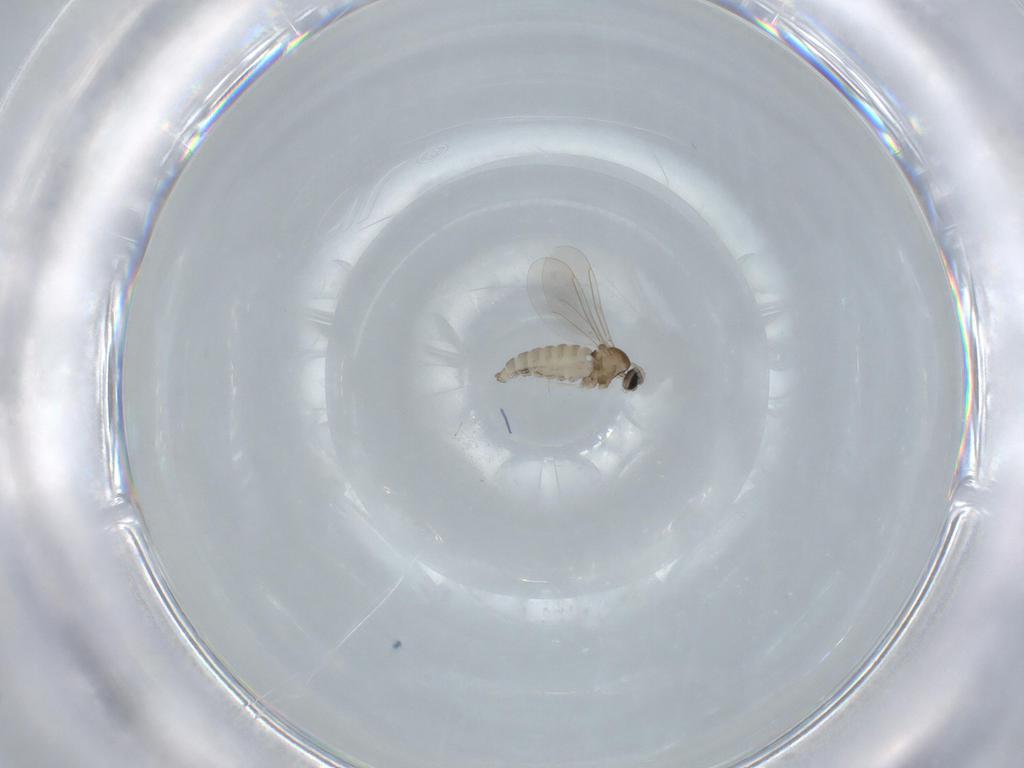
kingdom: Animalia
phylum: Arthropoda
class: Insecta
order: Diptera
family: Cecidomyiidae
